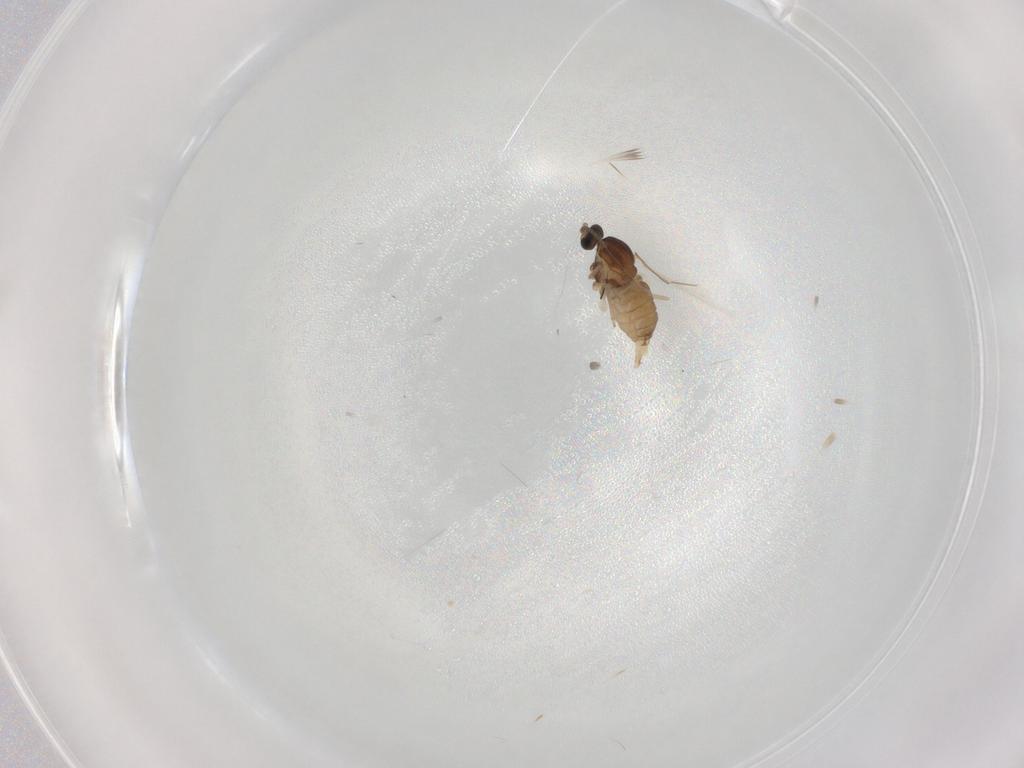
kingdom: Animalia
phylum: Arthropoda
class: Insecta
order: Diptera
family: Cecidomyiidae
